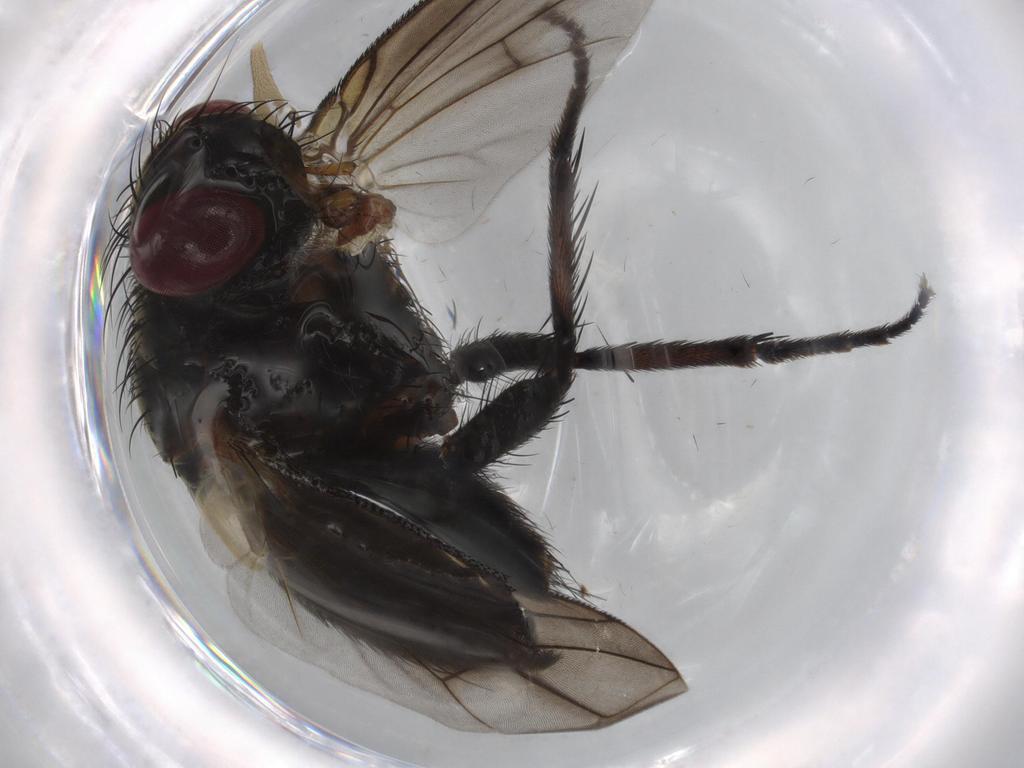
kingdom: Animalia
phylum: Arthropoda
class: Insecta
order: Diptera
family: Sciaridae
